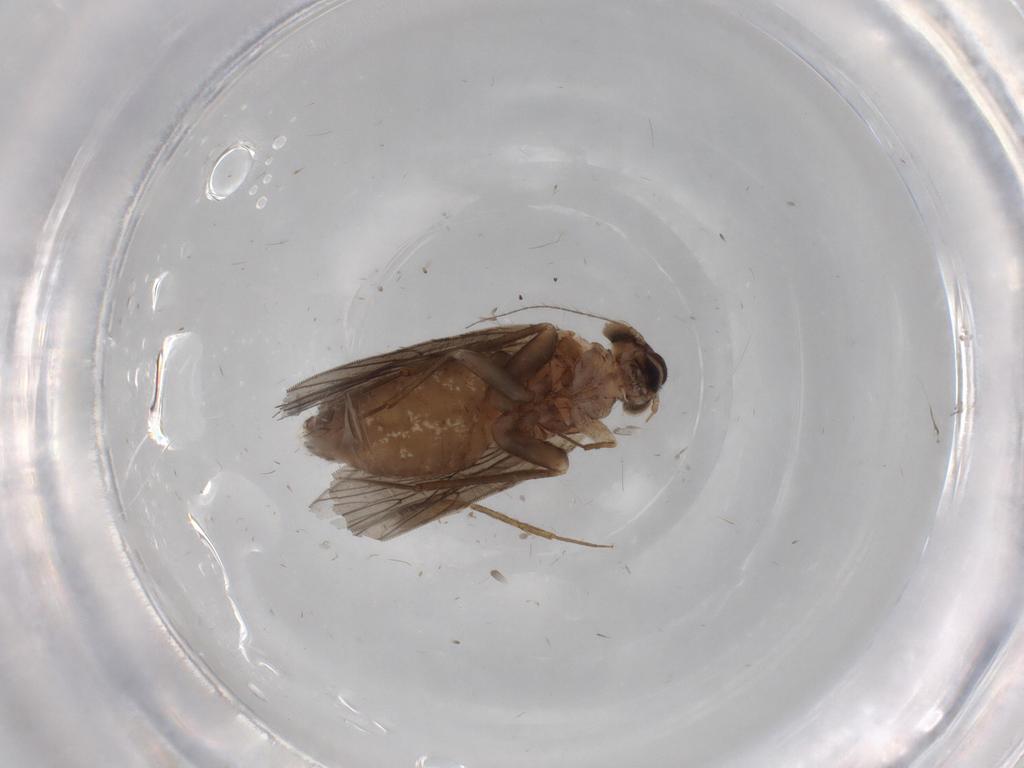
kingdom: Animalia
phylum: Arthropoda
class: Insecta
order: Psocodea
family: Lepidopsocidae
